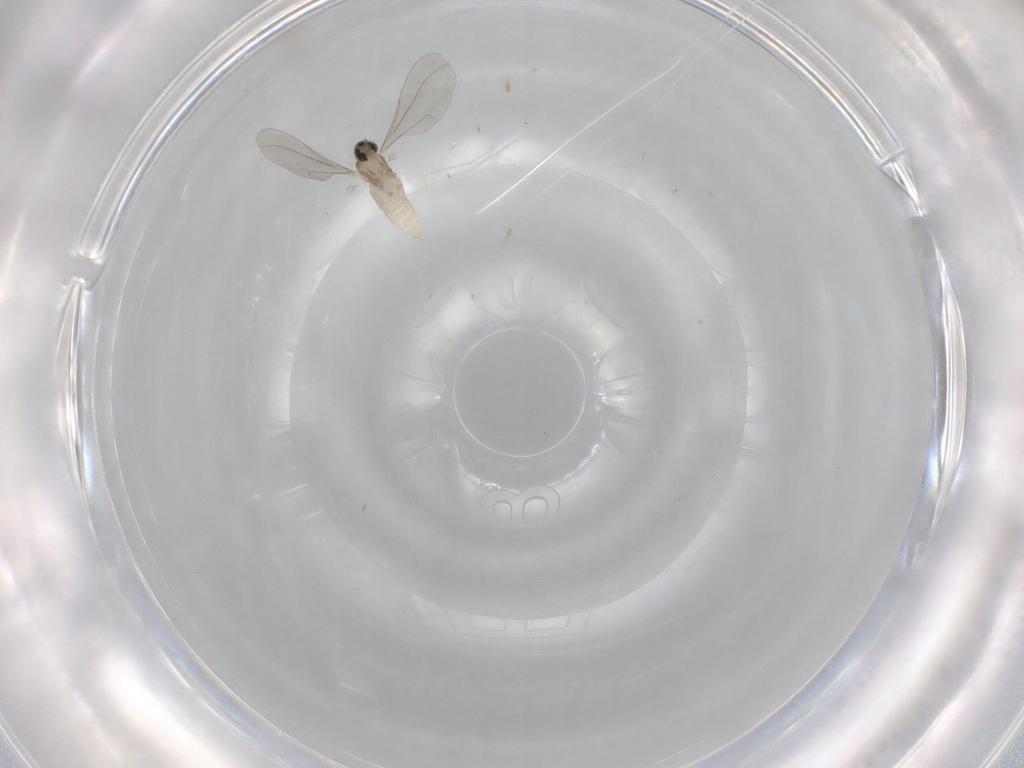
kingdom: Animalia
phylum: Arthropoda
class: Insecta
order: Diptera
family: Cecidomyiidae
